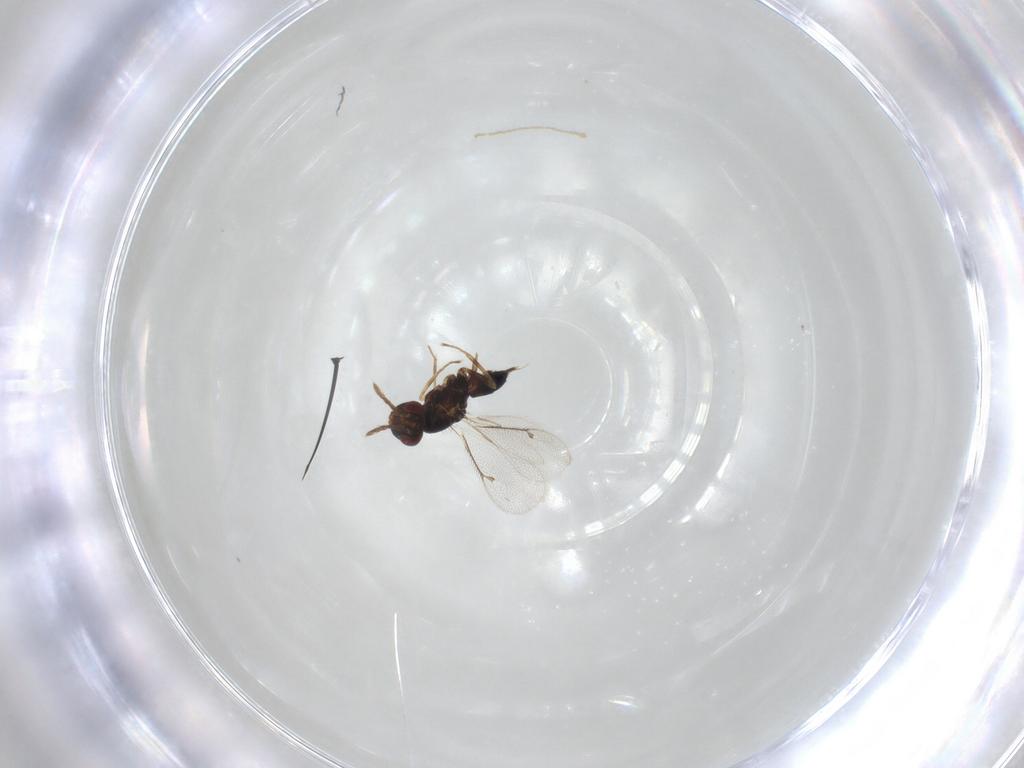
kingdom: Animalia
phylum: Arthropoda
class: Insecta
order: Hymenoptera
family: Eulophidae
